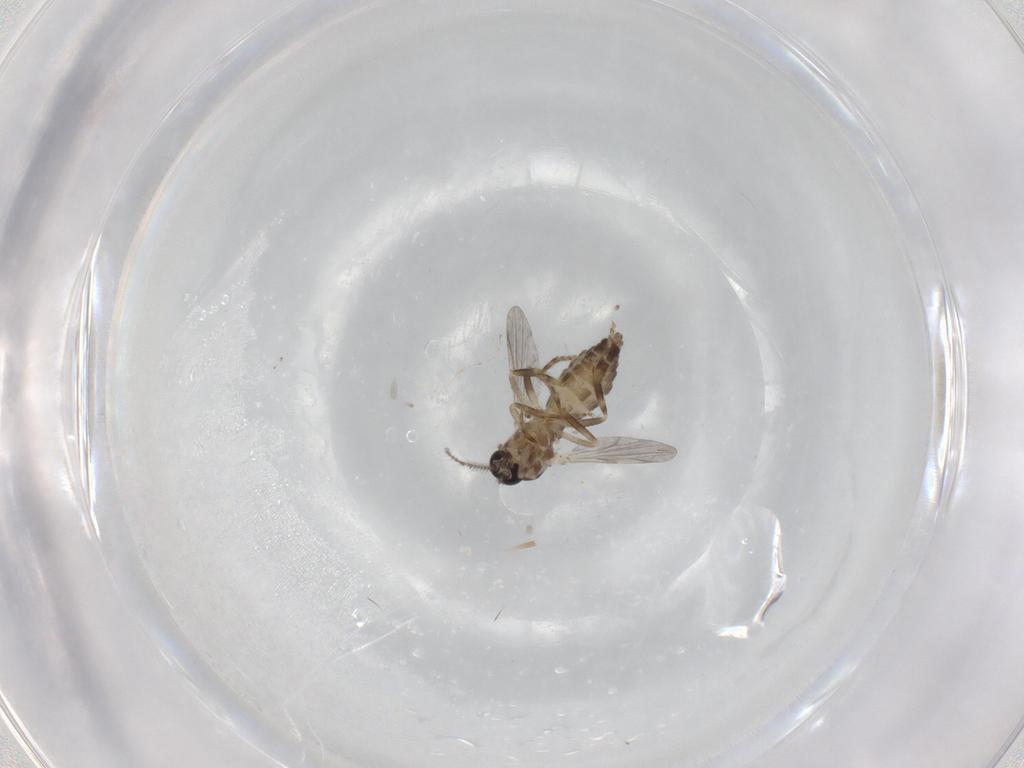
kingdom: Animalia
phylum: Arthropoda
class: Insecta
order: Diptera
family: Ceratopogonidae
